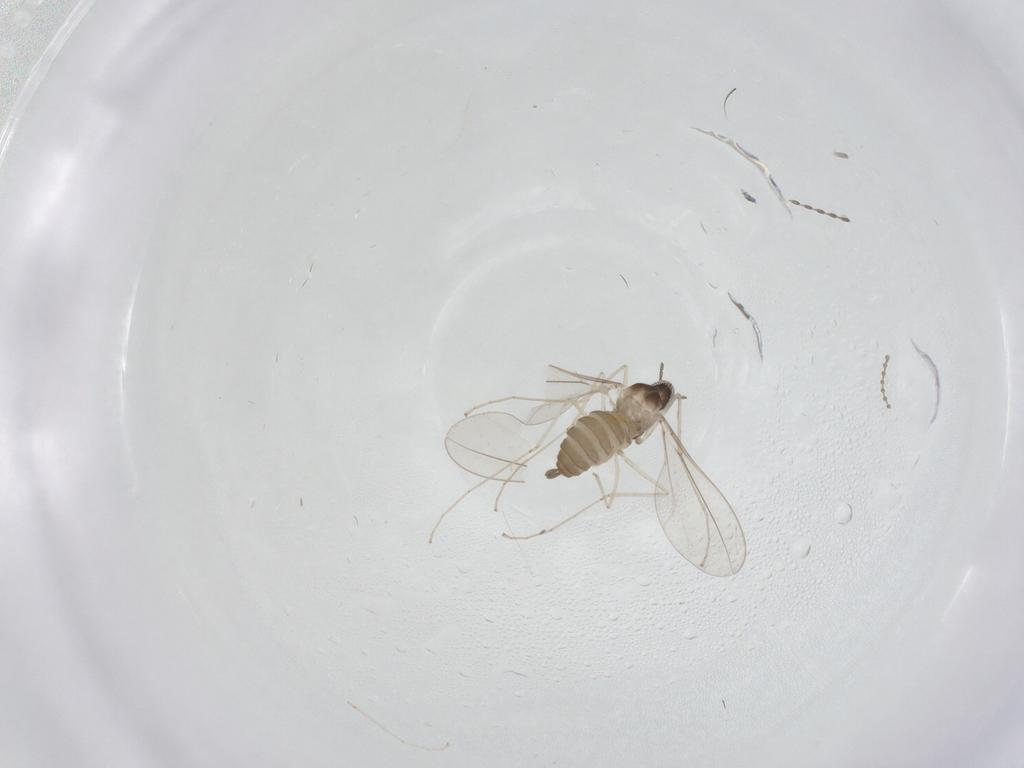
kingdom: Animalia
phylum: Arthropoda
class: Insecta
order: Diptera
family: Cecidomyiidae
